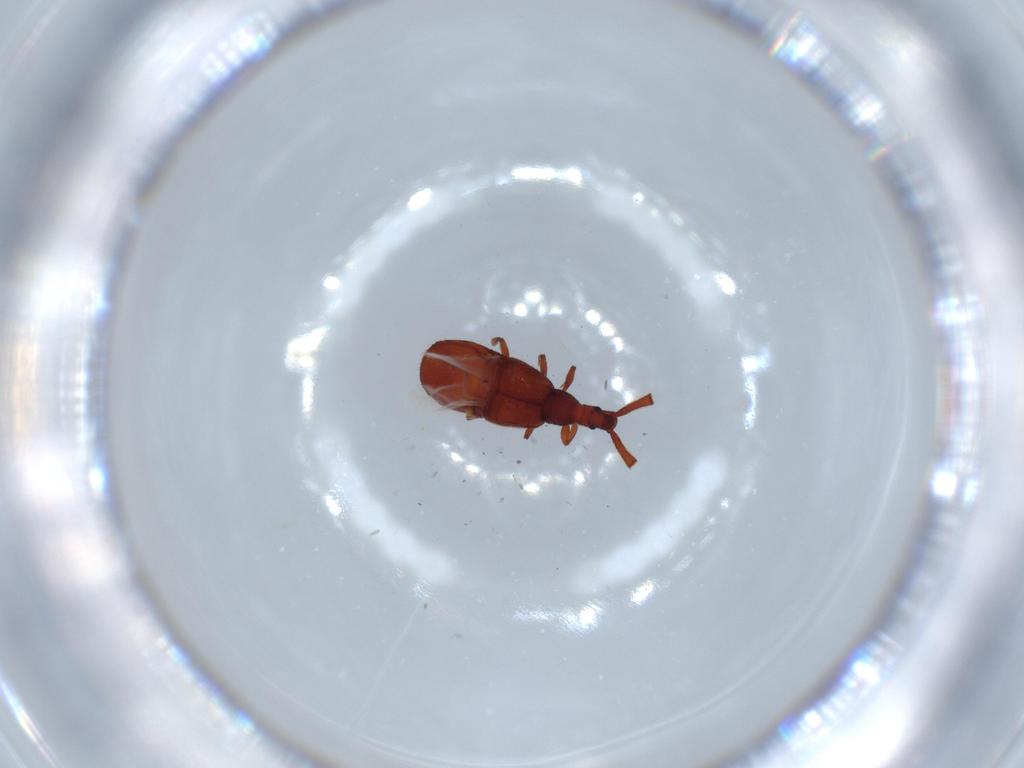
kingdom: Animalia
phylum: Arthropoda
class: Insecta
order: Coleoptera
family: Staphylinidae
